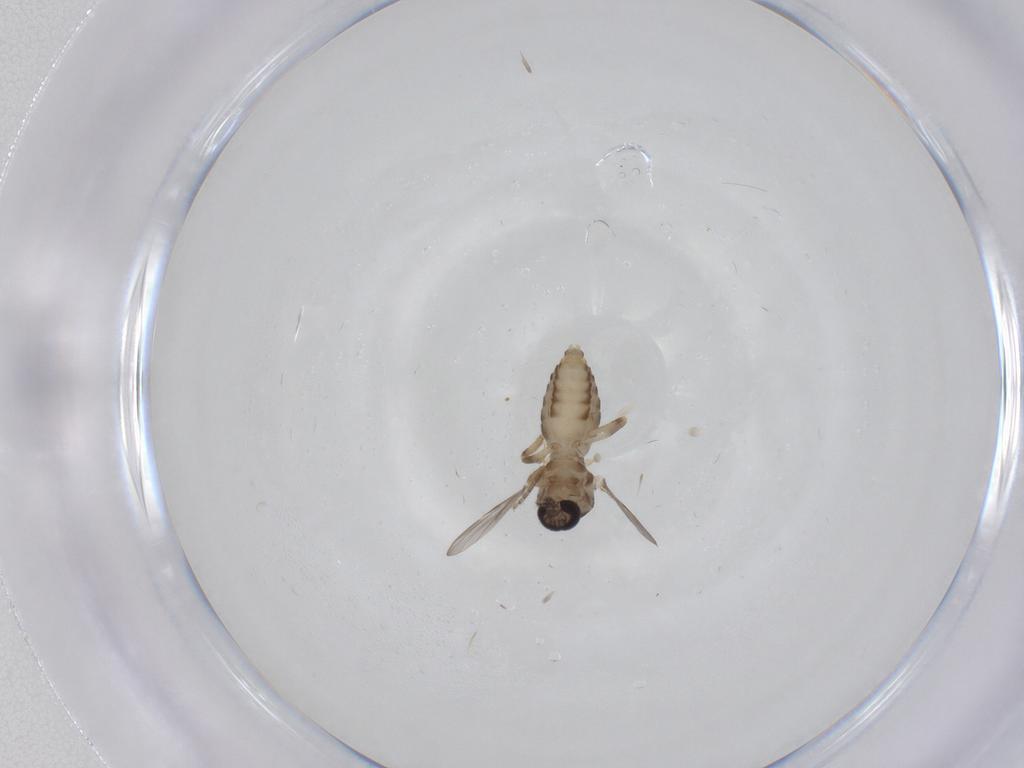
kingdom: Animalia
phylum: Arthropoda
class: Insecta
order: Diptera
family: Ceratopogonidae
